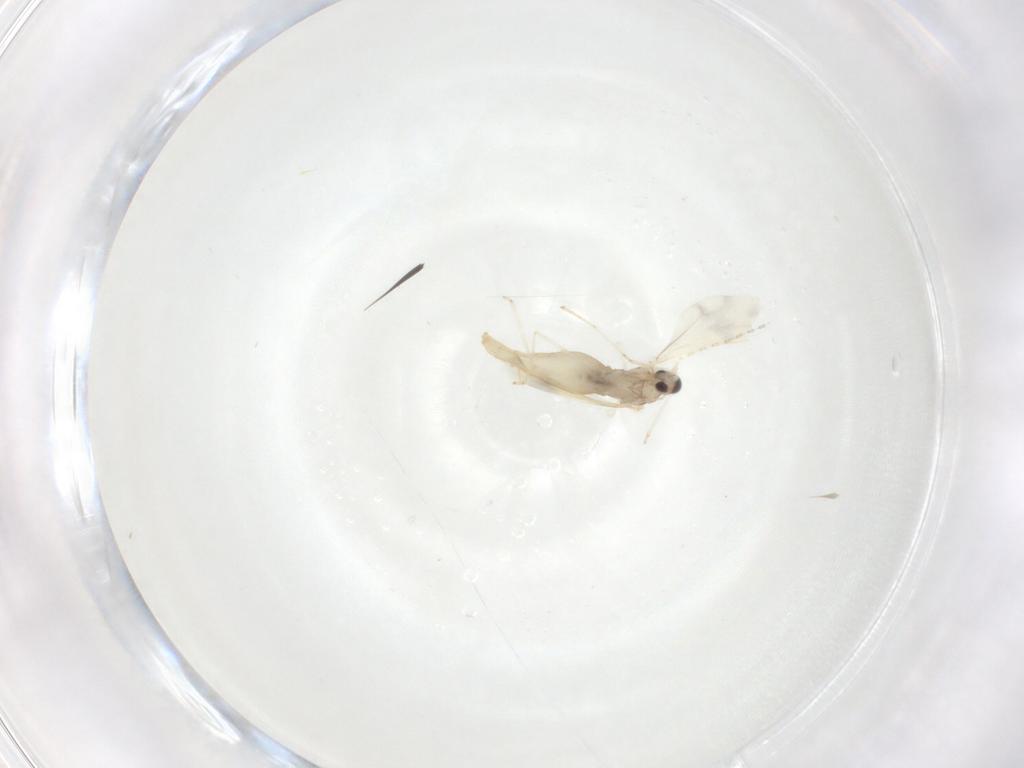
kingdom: Animalia
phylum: Arthropoda
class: Insecta
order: Diptera
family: Cecidomyiidae
